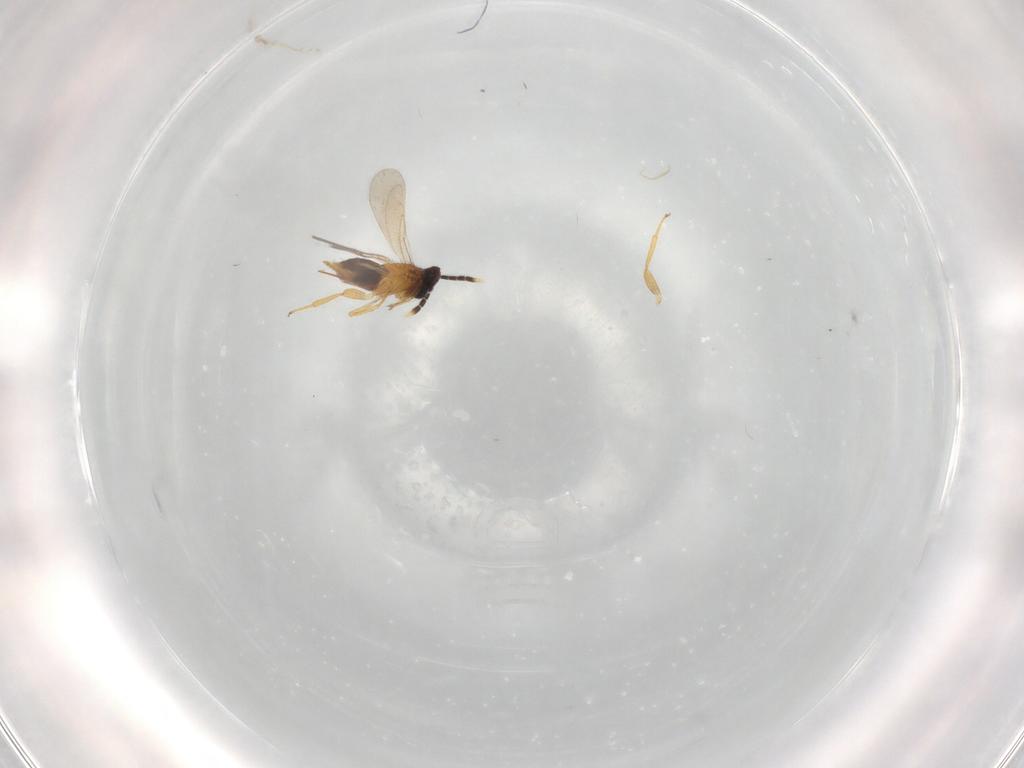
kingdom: Animalia
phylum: Arthropoda
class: Insecta
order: Hymenoptera
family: Aphelinidae
